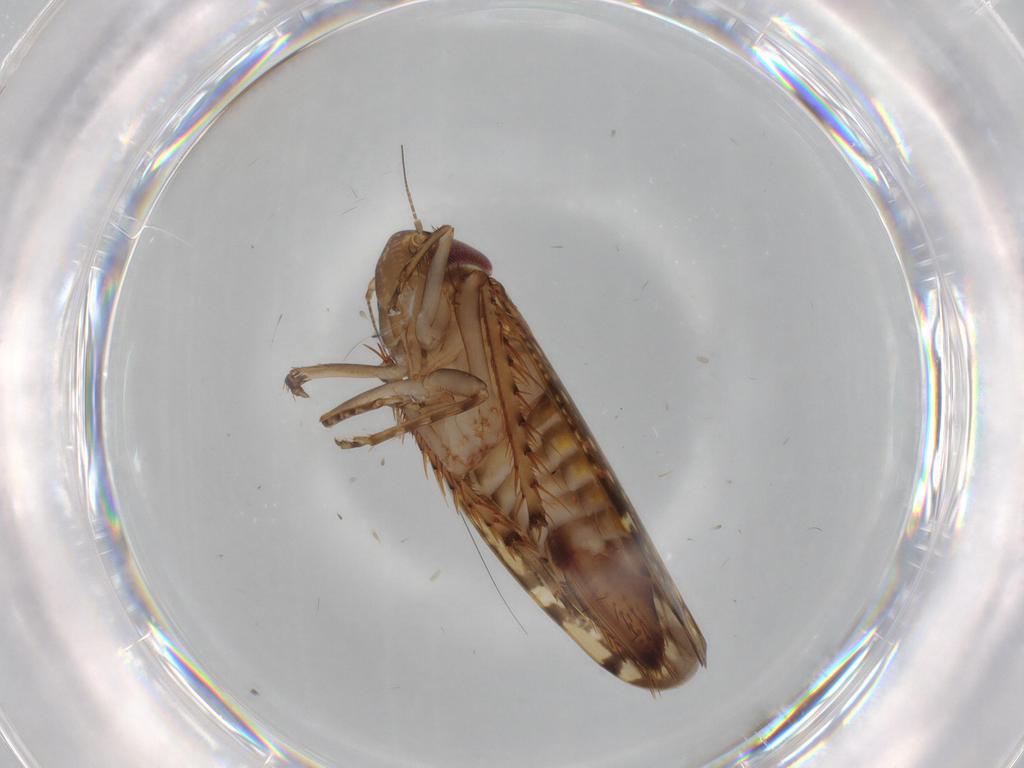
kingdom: Animalia
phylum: Arthropoda
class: Insecta
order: Hemiptera
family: Cicadellidae
